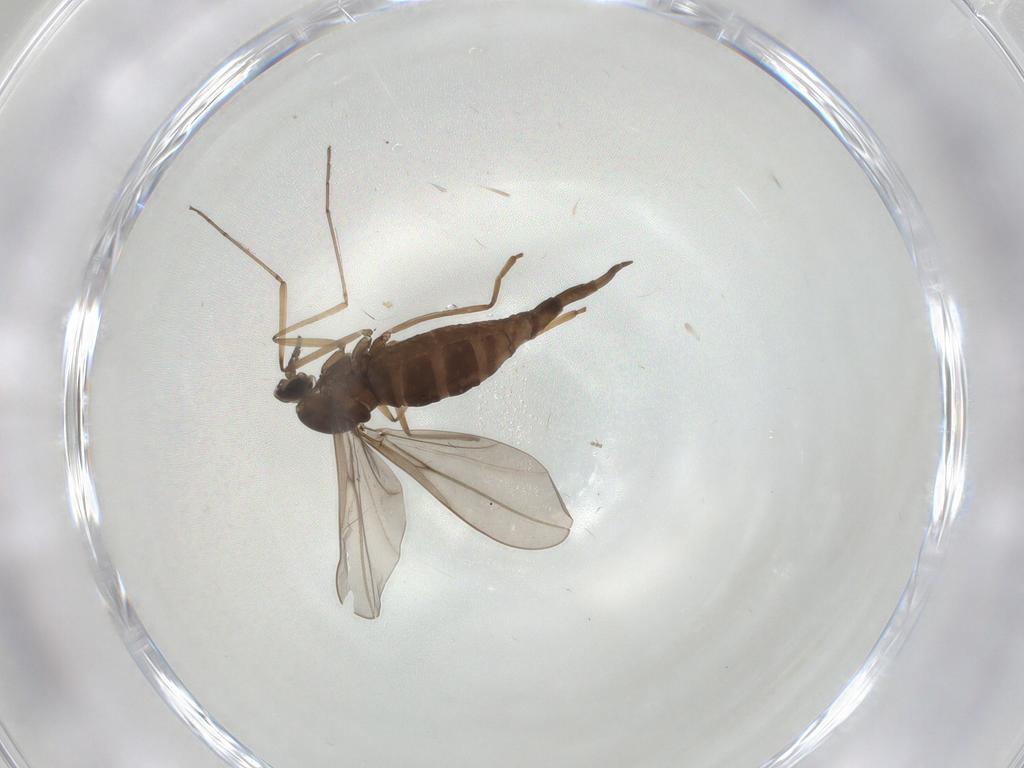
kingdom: Animalia
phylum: Arthropoda
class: Insecta
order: Diptera
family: Cecidomyiidae
